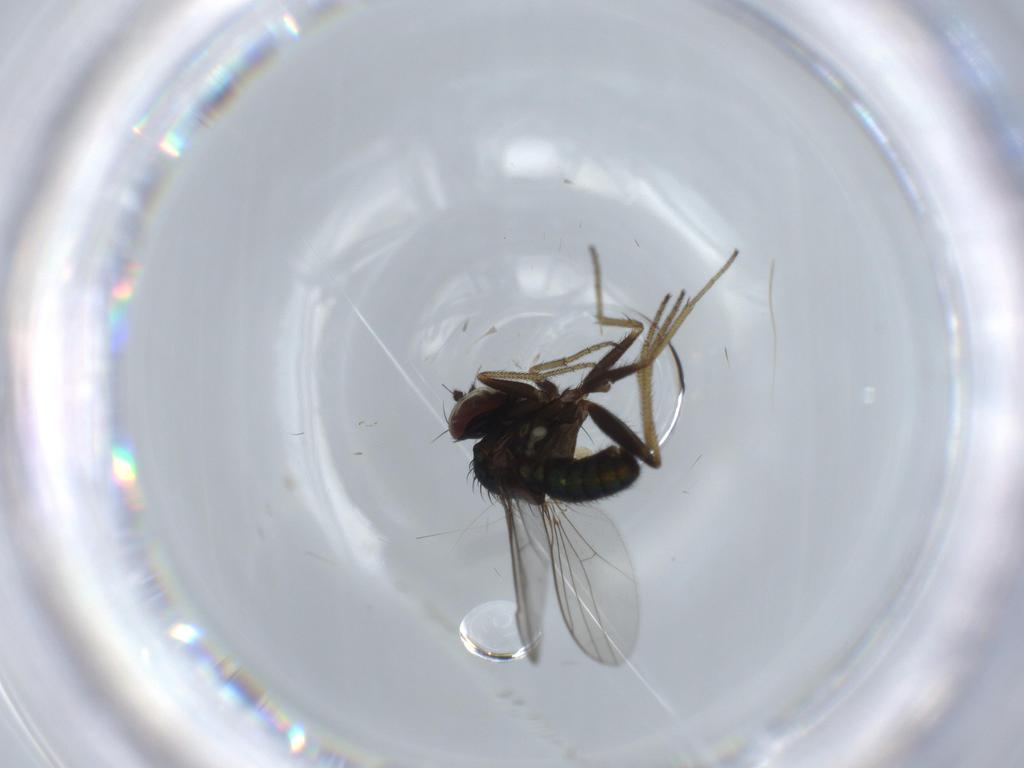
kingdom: Animalia
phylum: Arthropoda
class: Insecta
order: Diptera
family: Dolichopodidae
